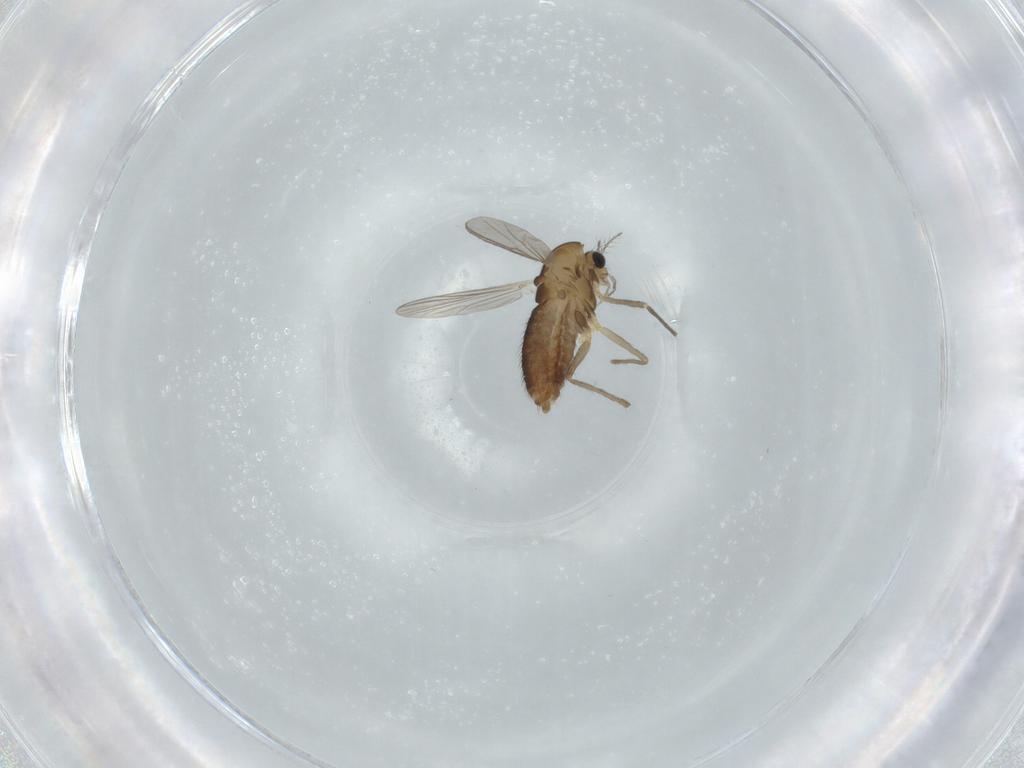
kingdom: Animalia
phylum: Arthropoda
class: Insecta
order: Diptera
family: Chironomidae
